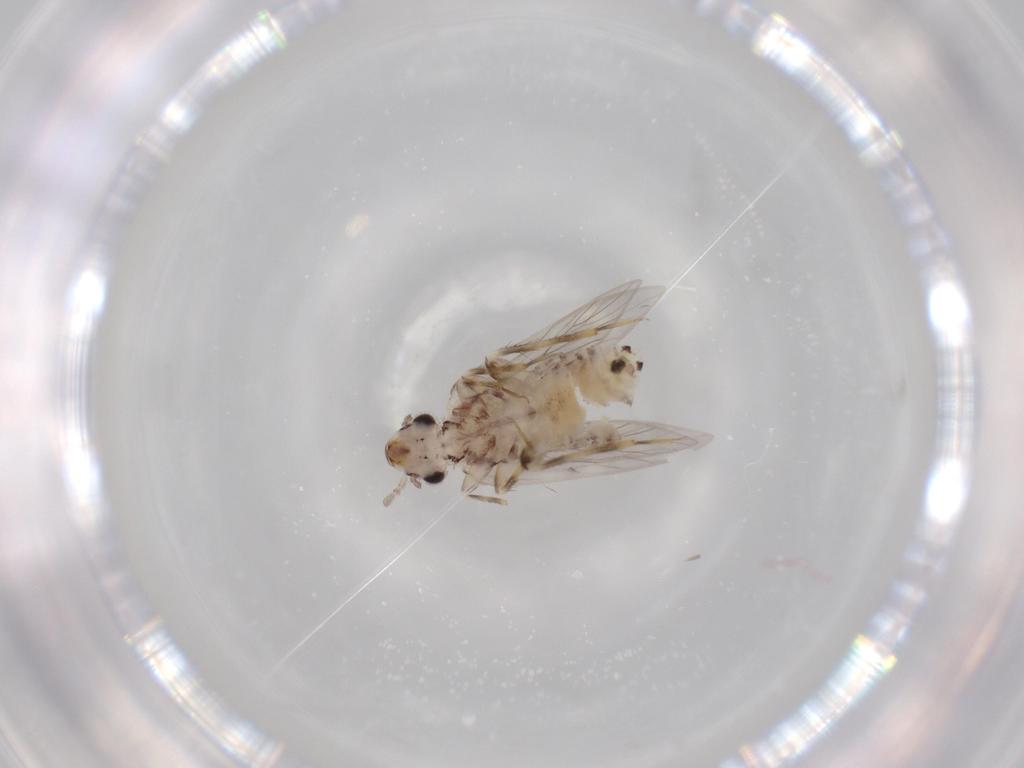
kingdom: Animalia
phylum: Arthropoda
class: Insecta
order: Psocodea
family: Lepidopsocidae
